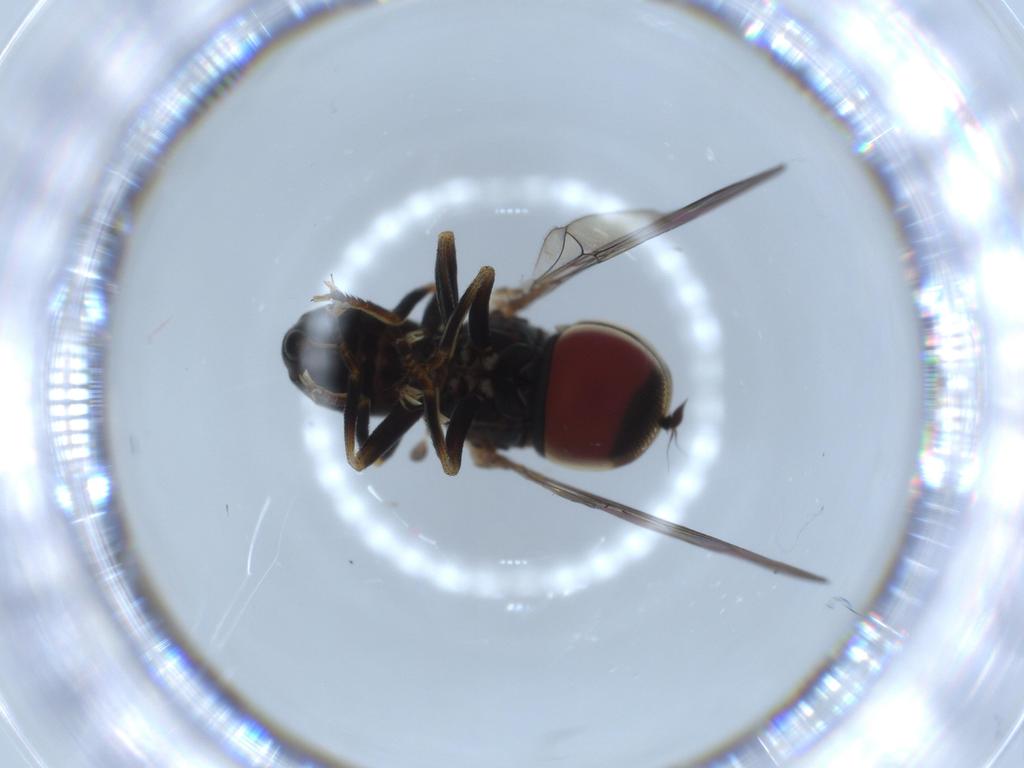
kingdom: Animalia
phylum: Arthropoda
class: Insecta
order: Diptera
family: Pipunculidae
